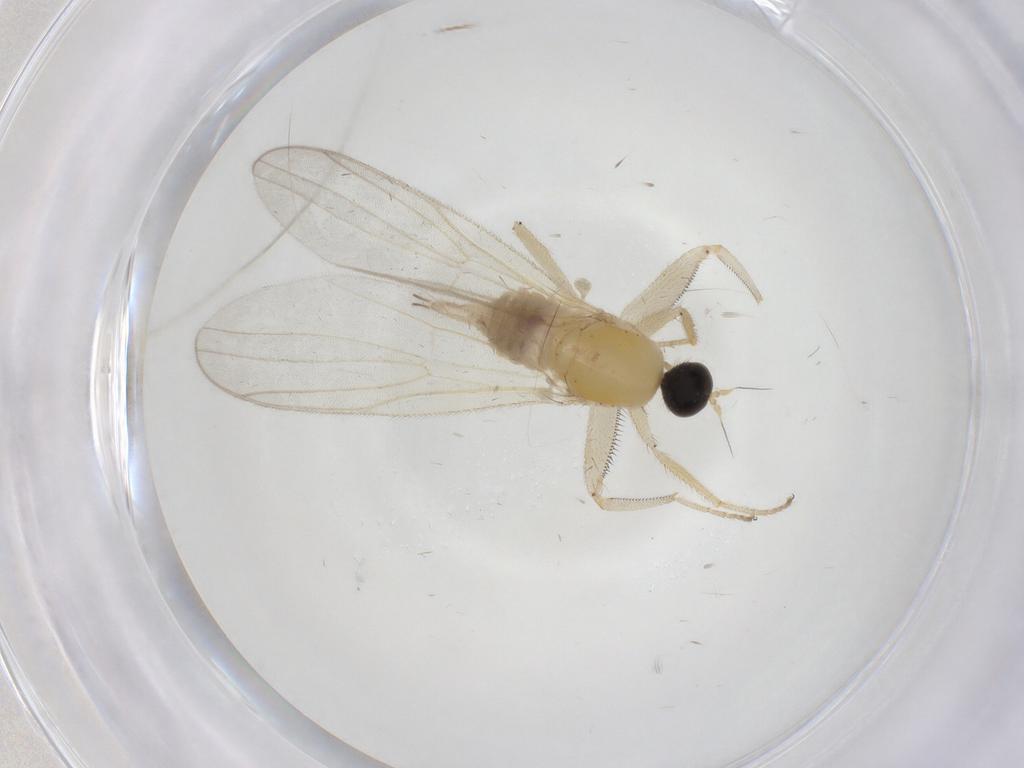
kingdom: Animalia
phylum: Arthropoda
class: Insecta
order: Diptera
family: Hybotidae
